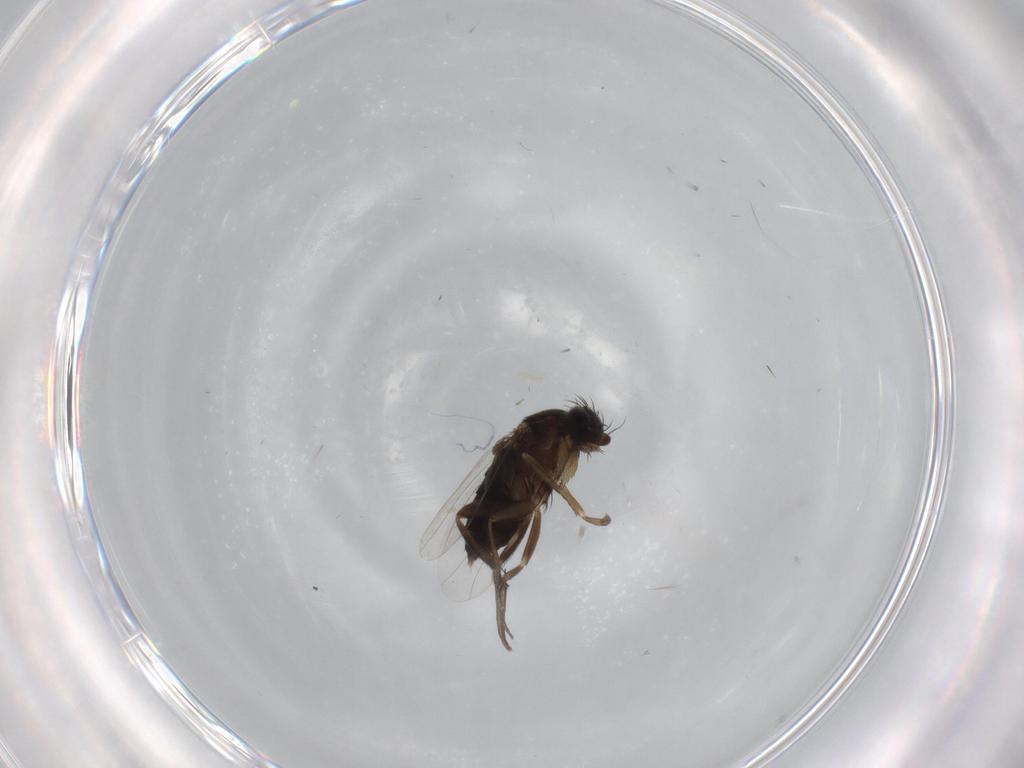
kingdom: Animalia
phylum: Arthropoda
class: Insecta
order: Diptera
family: Phoridae
